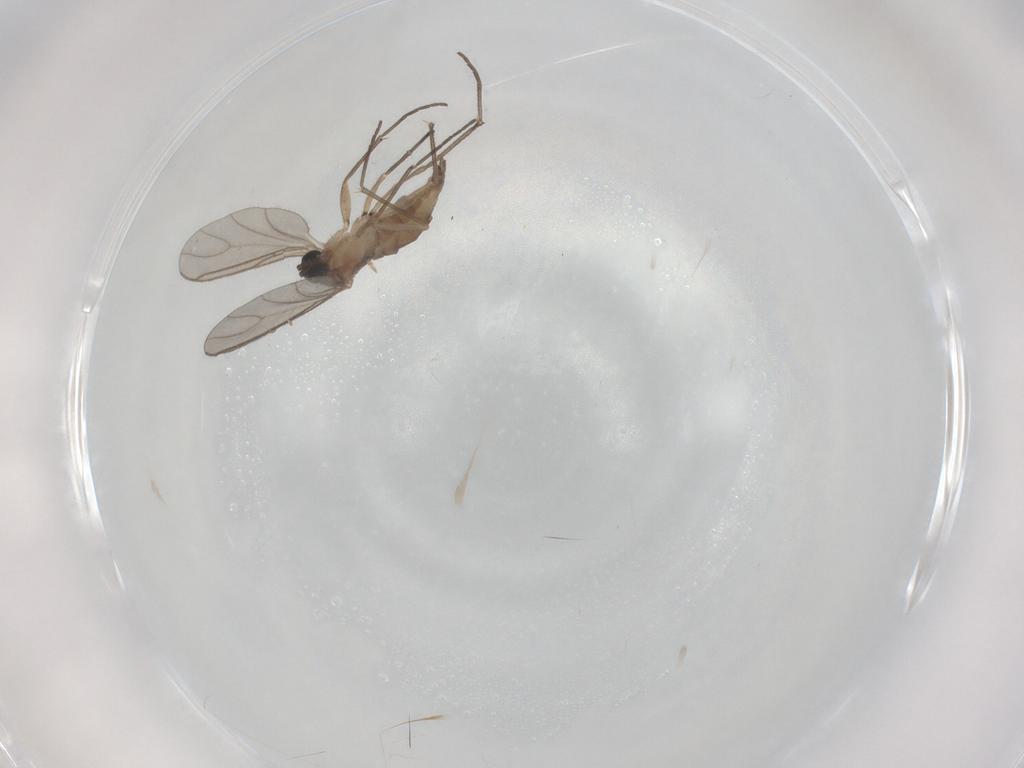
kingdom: Animalia
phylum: Arthropoda
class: Insecta
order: Diptera
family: Sciaridae
